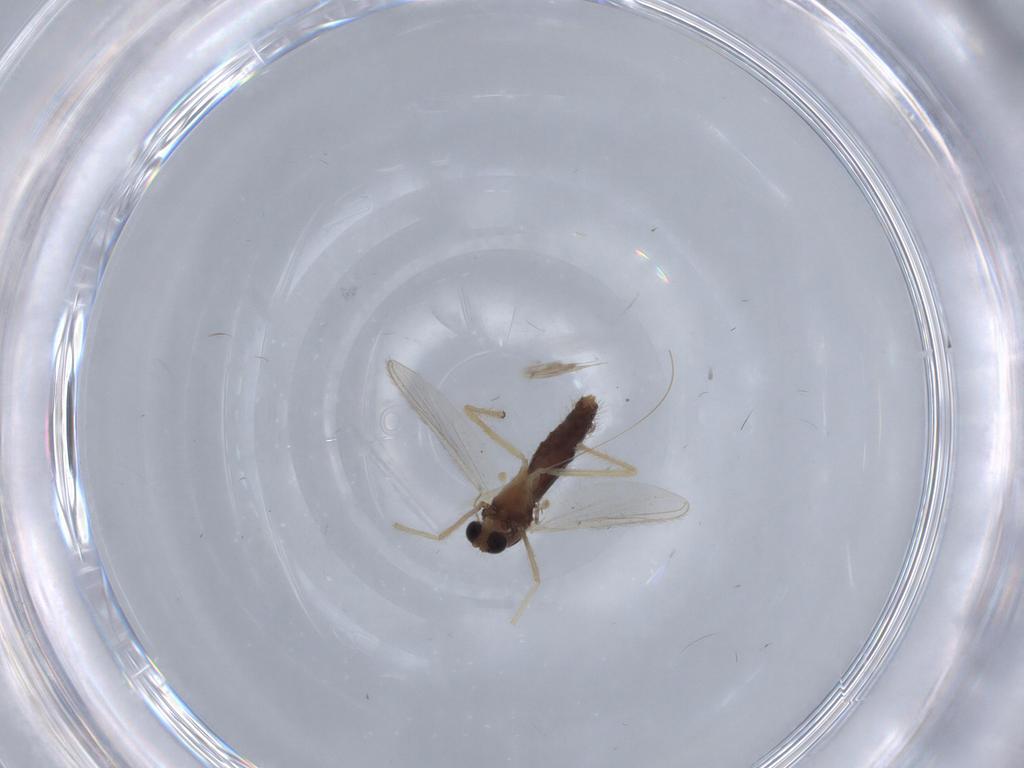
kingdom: Animalia
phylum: Arthropoda
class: Insecta
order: Diptera
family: Chironomidae
